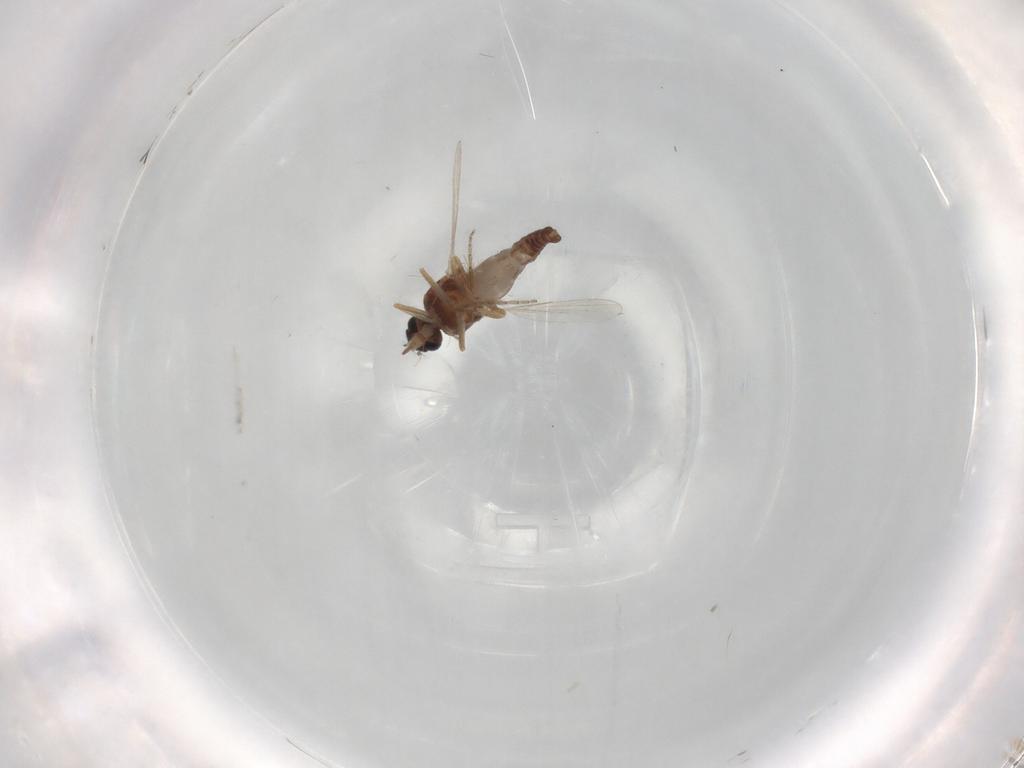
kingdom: Animalia
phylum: Arthropoda
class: Insecta
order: Diptera
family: Ceratopogonidae
